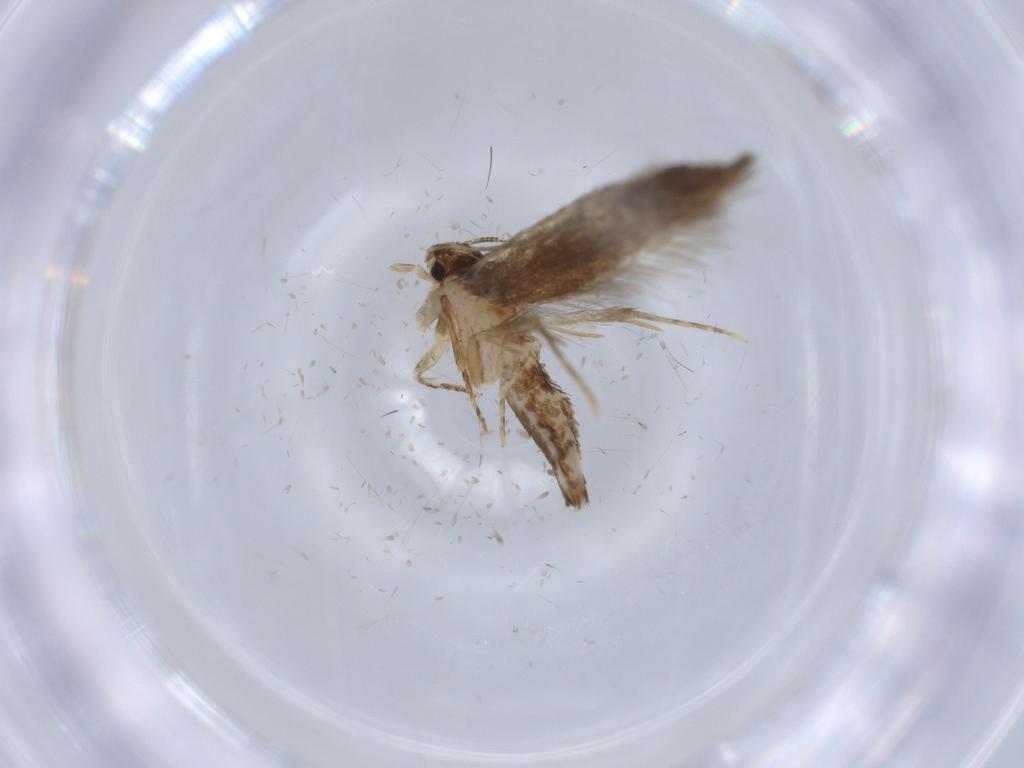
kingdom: Animalia
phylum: Arthropoda
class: Insecta
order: Lepidoptera
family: Tineidae
